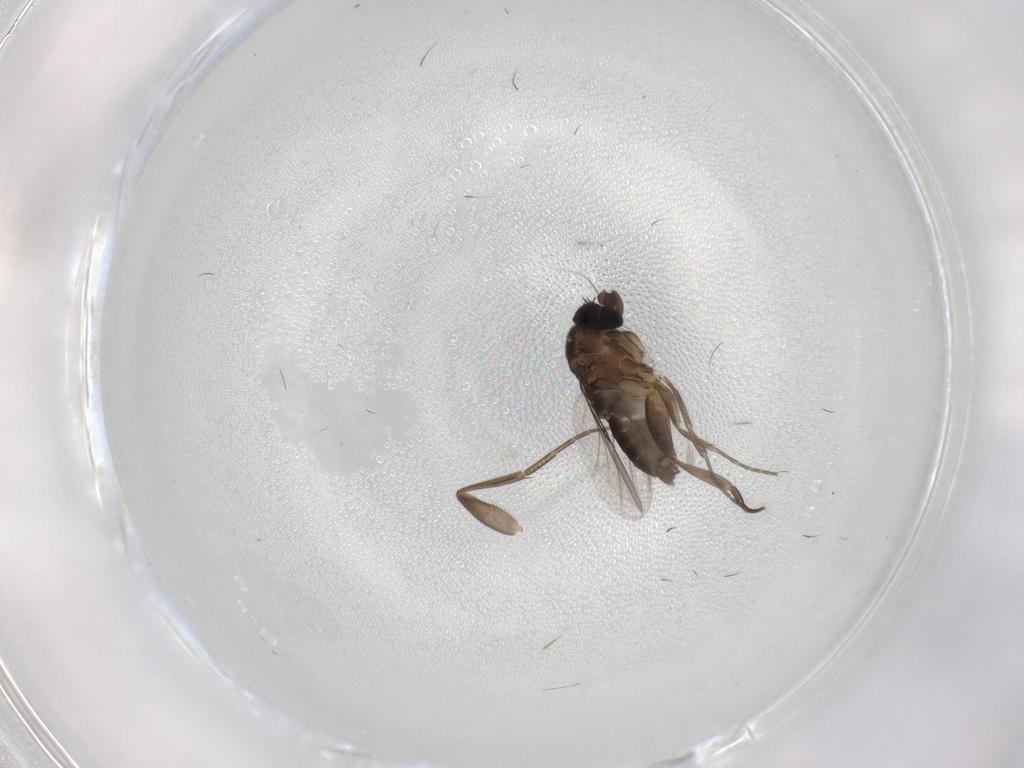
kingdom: Animalia
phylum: Arthropoda
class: Insecta
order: Diptera
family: Phoridae
